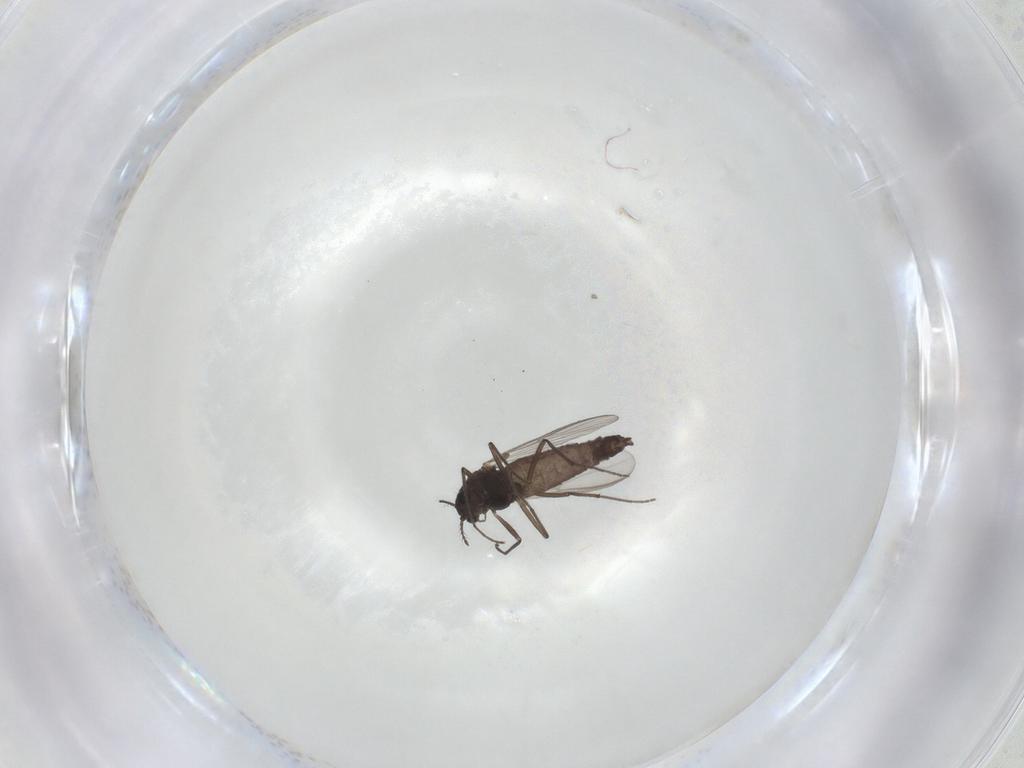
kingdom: Animalia
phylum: Arthropoda
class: Insecta
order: Diptera
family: Chironomidae
